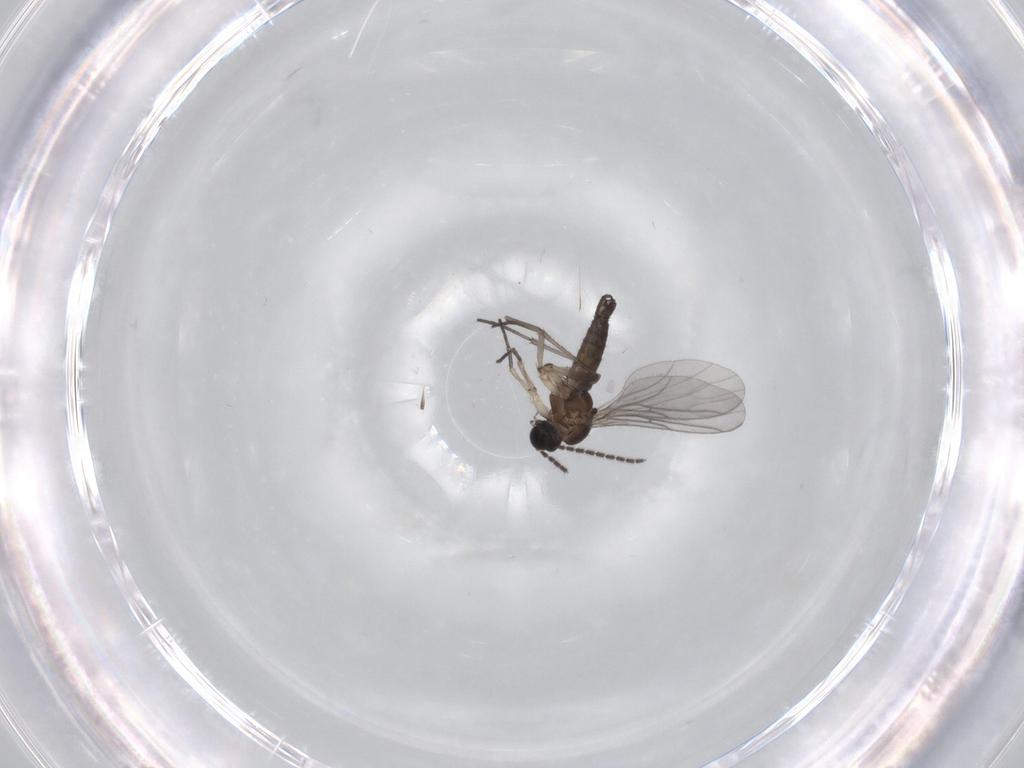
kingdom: Animalia
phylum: Arthropoda
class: Insecta
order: Diptera
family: Sciaridae
